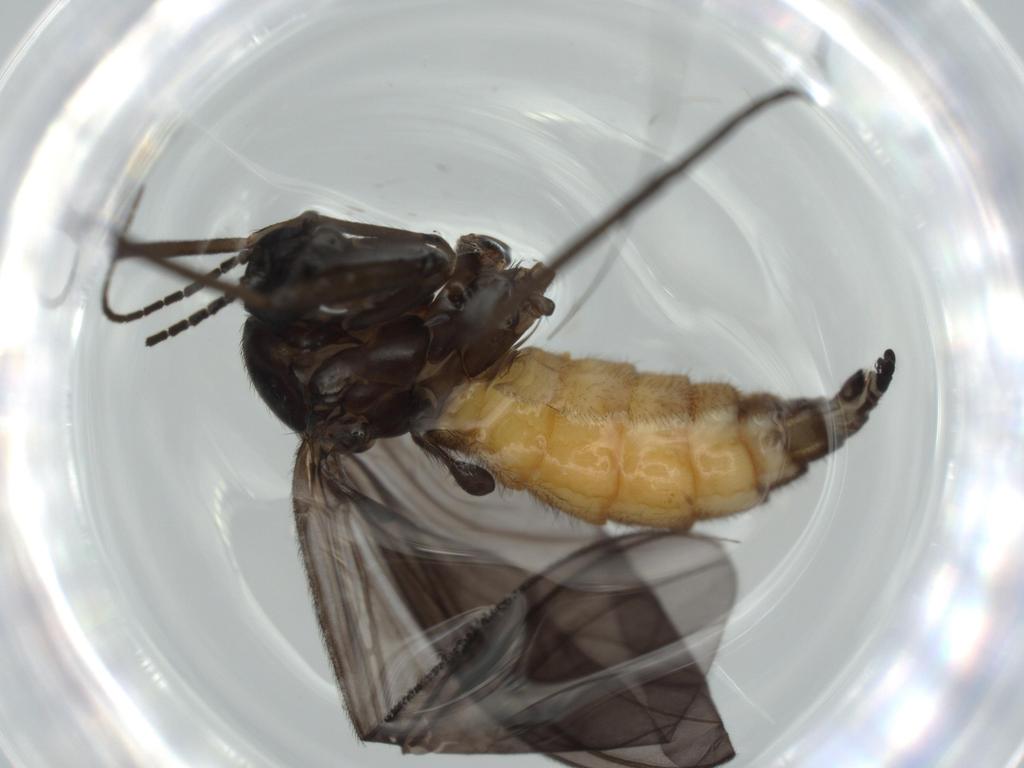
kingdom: Animalia
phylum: Arthropoda
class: Insecta
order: Diptera
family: Cecidomyiidae
